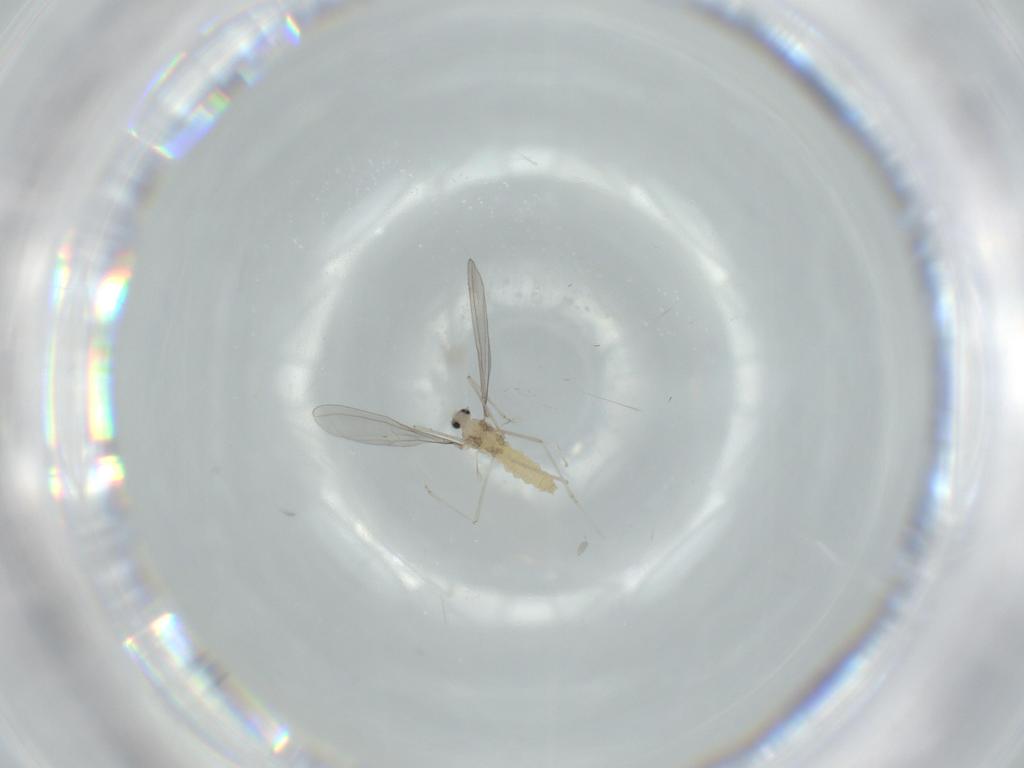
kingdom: Animalia
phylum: Arthropoda
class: Insecta
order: Diptera
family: Cecidomyiidae
